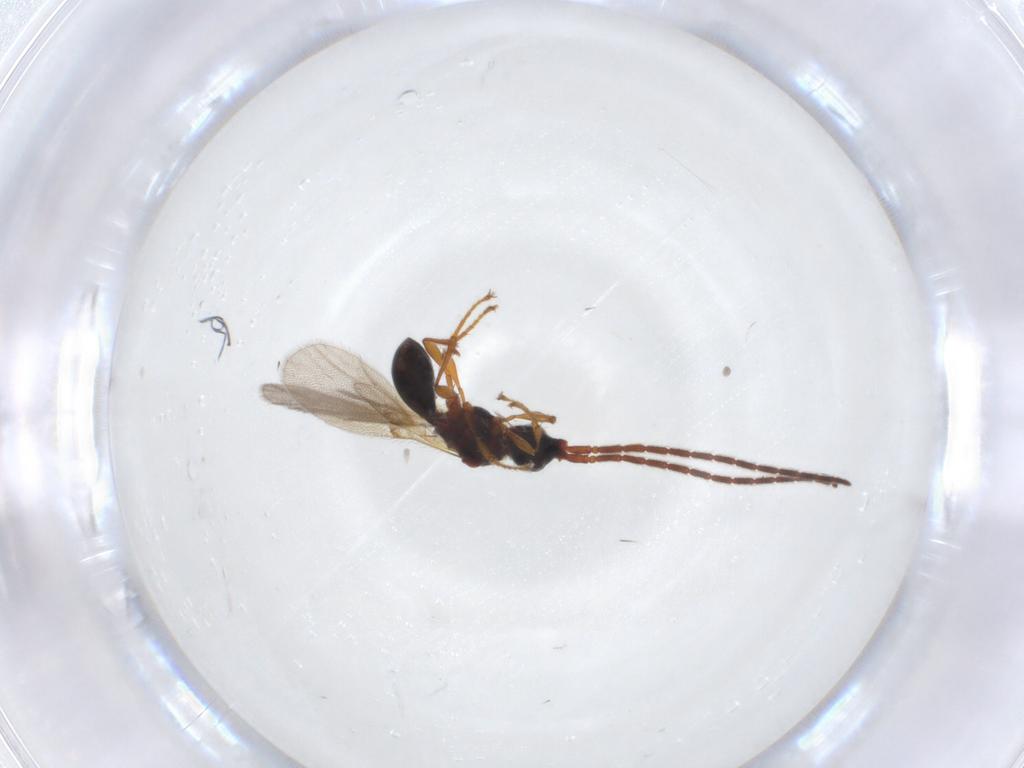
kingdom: Animalia
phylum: Arthropoda
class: Insecta
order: Hymenoptera
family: Diapriidae
